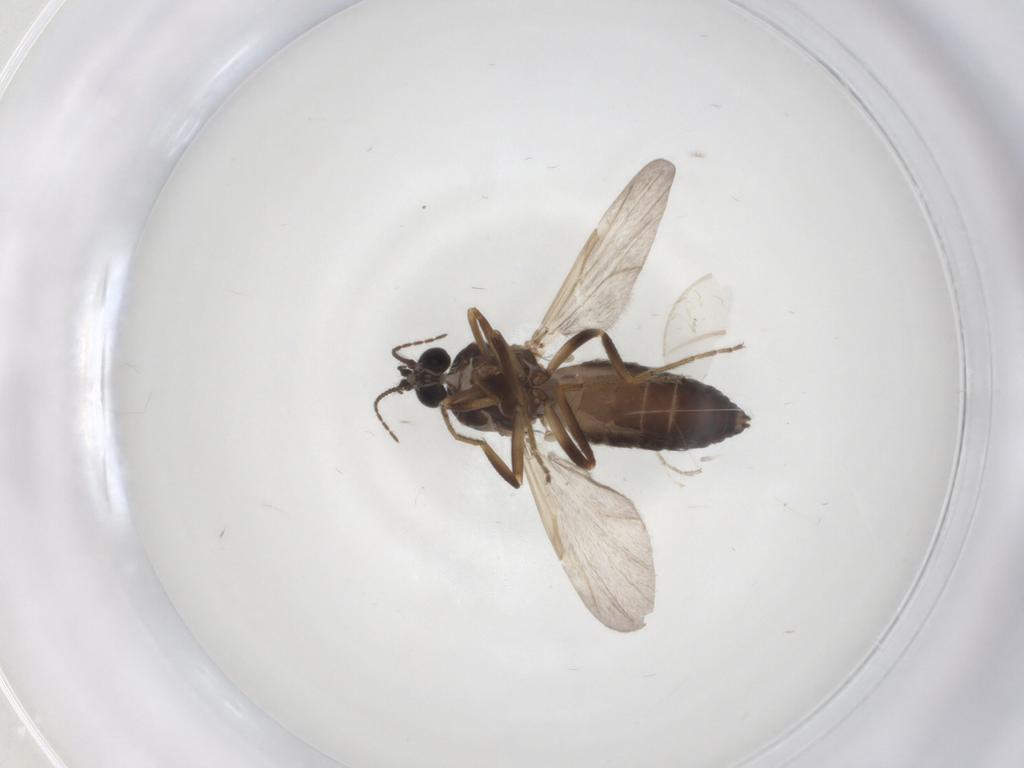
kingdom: Animalia
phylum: Arthropoda
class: Insecta
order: Diptera
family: Ceratopogonidae
